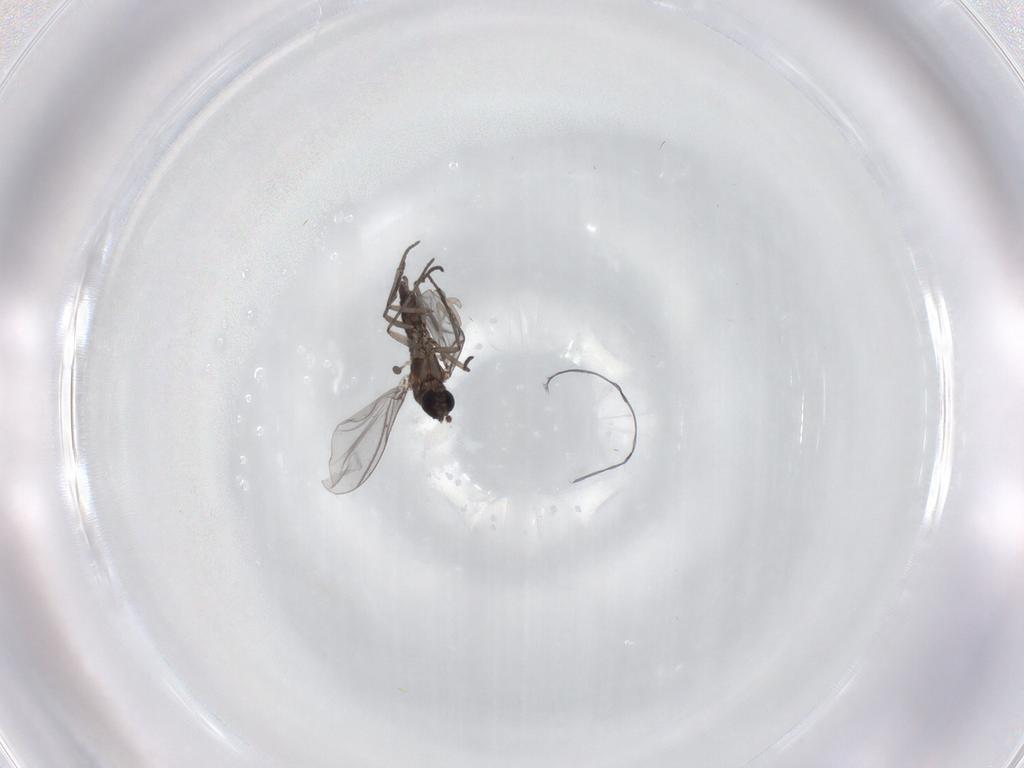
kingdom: Animalia
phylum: Arthropoda
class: Insecta
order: Diptera
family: Cecidomyiidae
